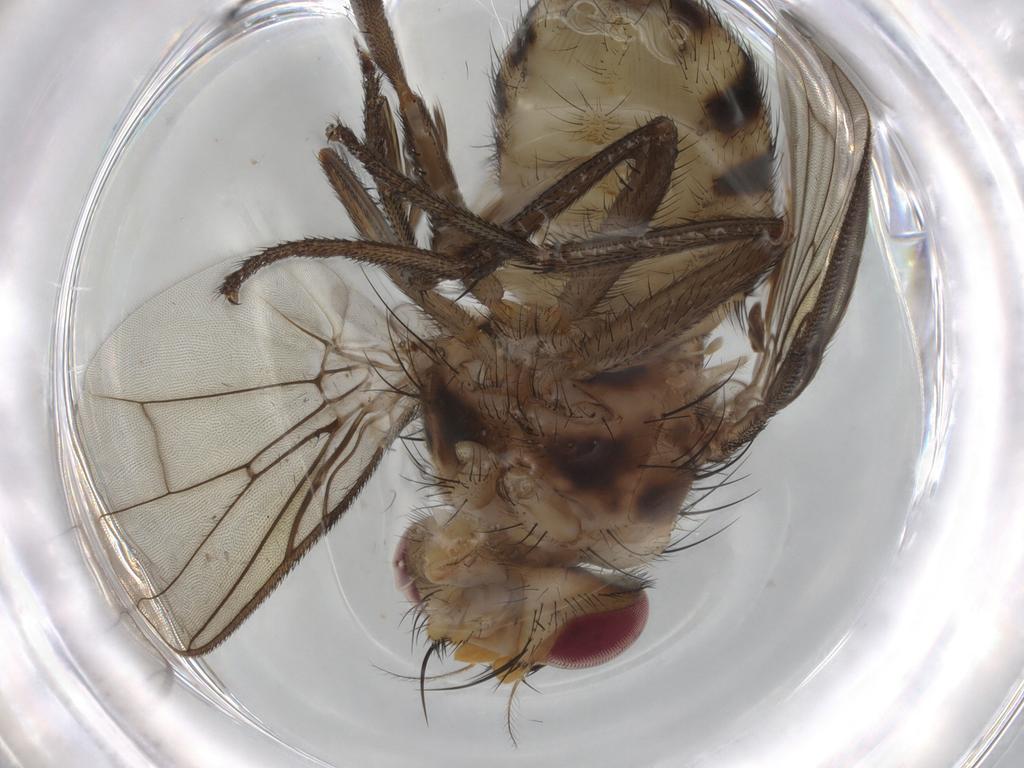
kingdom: Animalia
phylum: Arthropoda
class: Insecta
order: Diptera
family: Muscidae
